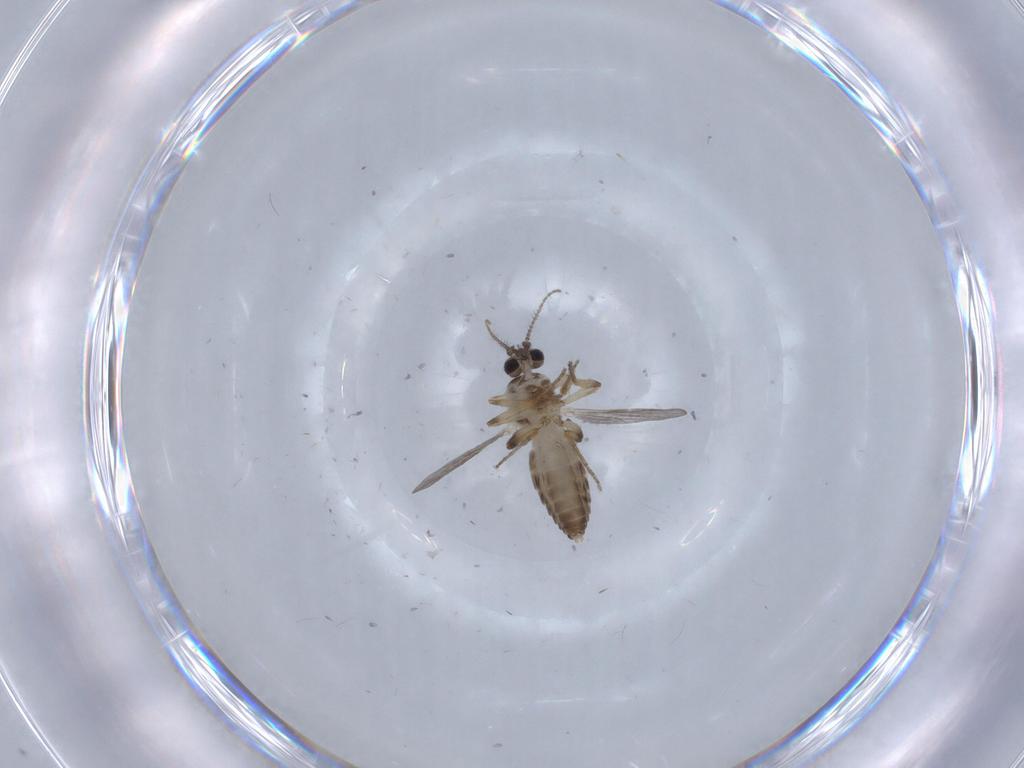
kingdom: Animalia
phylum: Arthropoda
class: Insecta
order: Diptera
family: Ceratopogonidae
